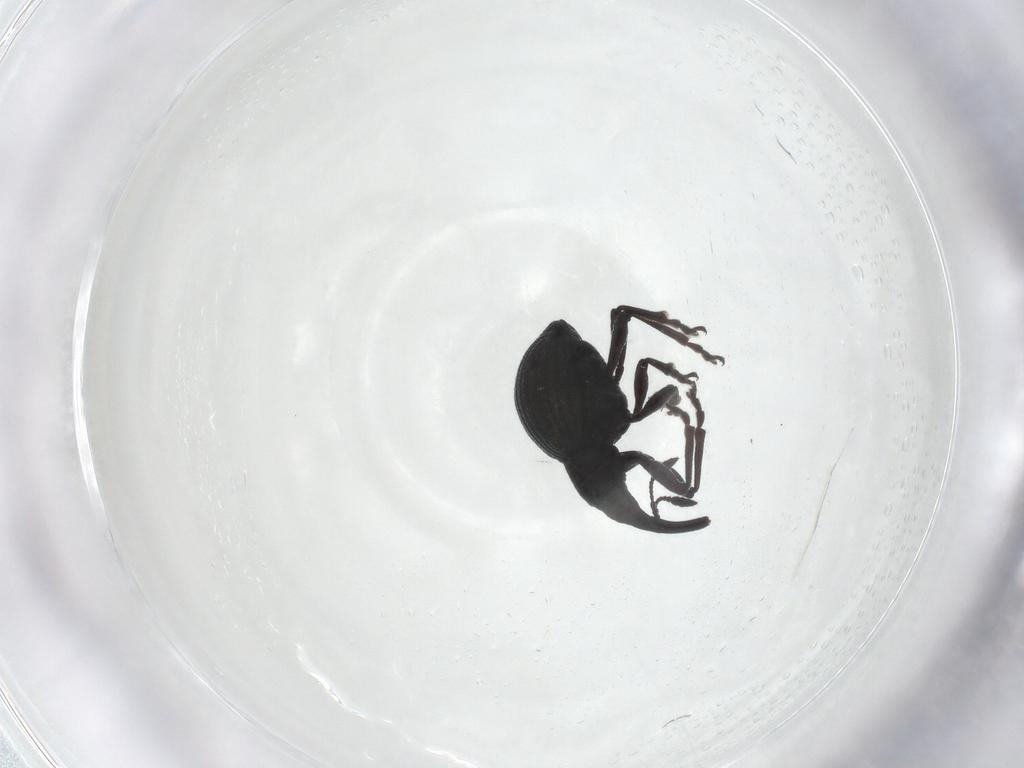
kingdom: Animalia
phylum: Arthropoda
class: Insecta
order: Coleoptera
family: Brentidae
